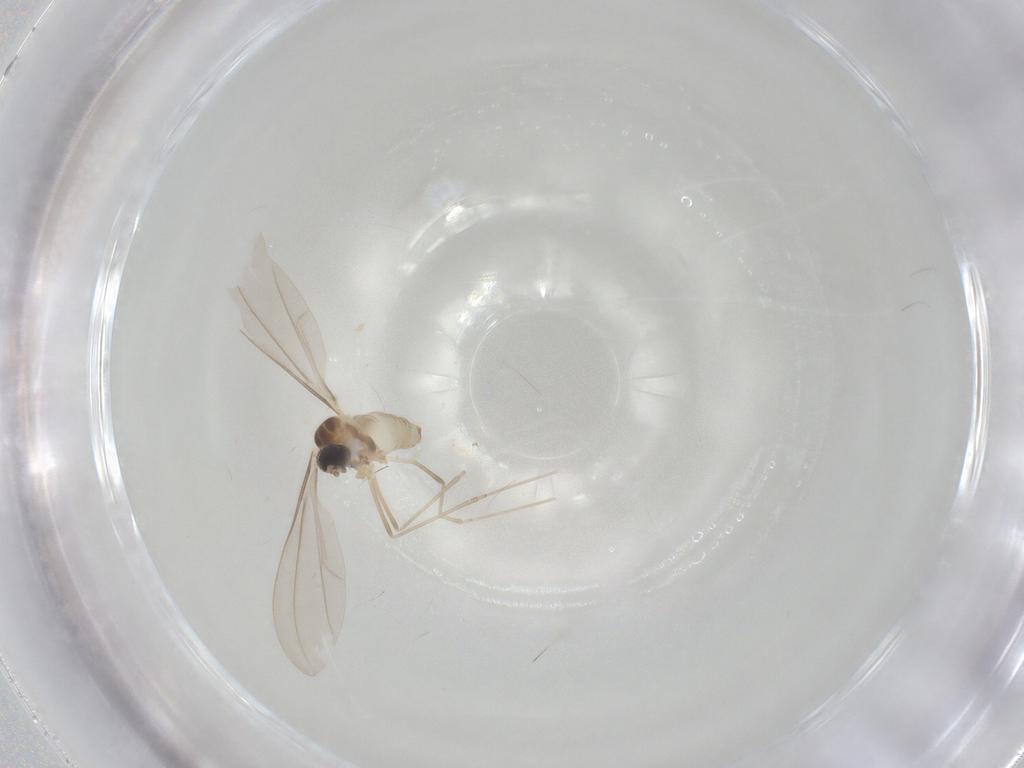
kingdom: Animalia
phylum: Arthropoda
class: Insecta
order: Diptera
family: Cecidomyiidae
